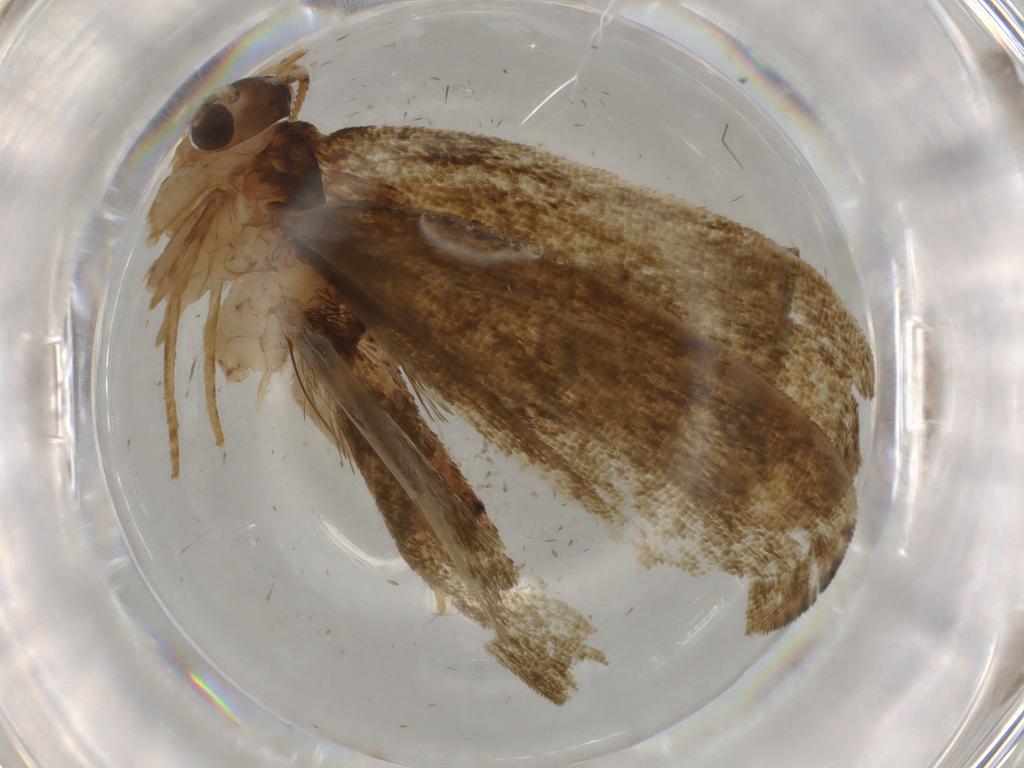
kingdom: Animalia
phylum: Arthropoda
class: Insecta
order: Lepidoptera
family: Geometridae
